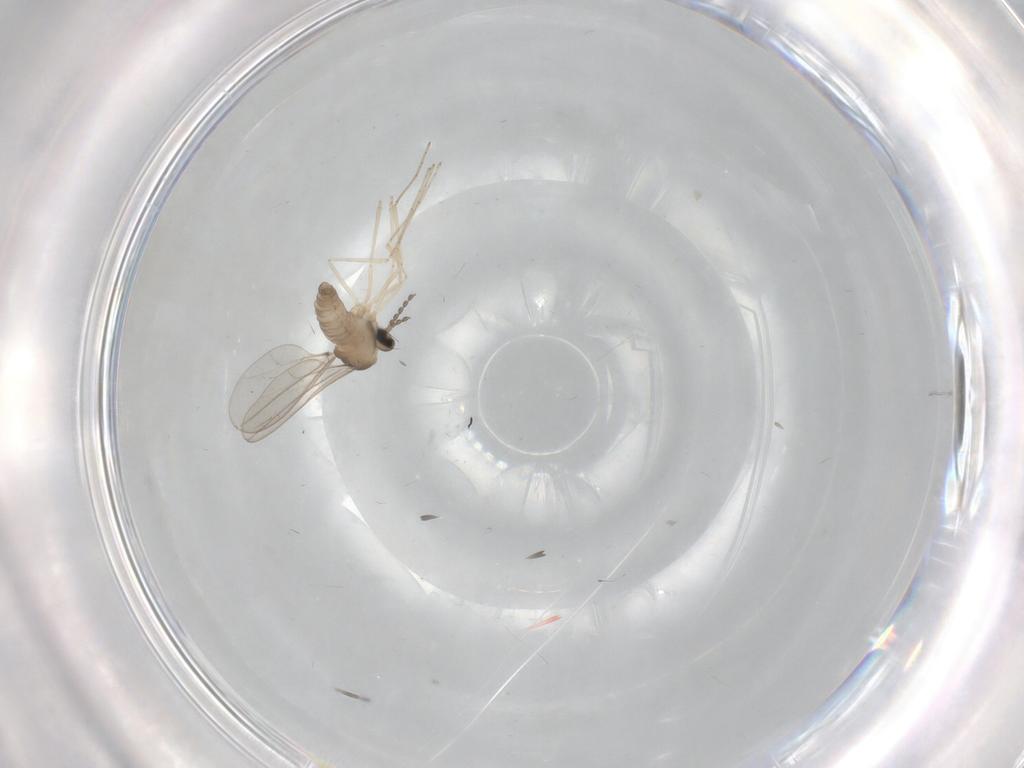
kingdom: Animalia
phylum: Arthropoda
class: Insecta
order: Diptera
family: Cecidomyiidae
